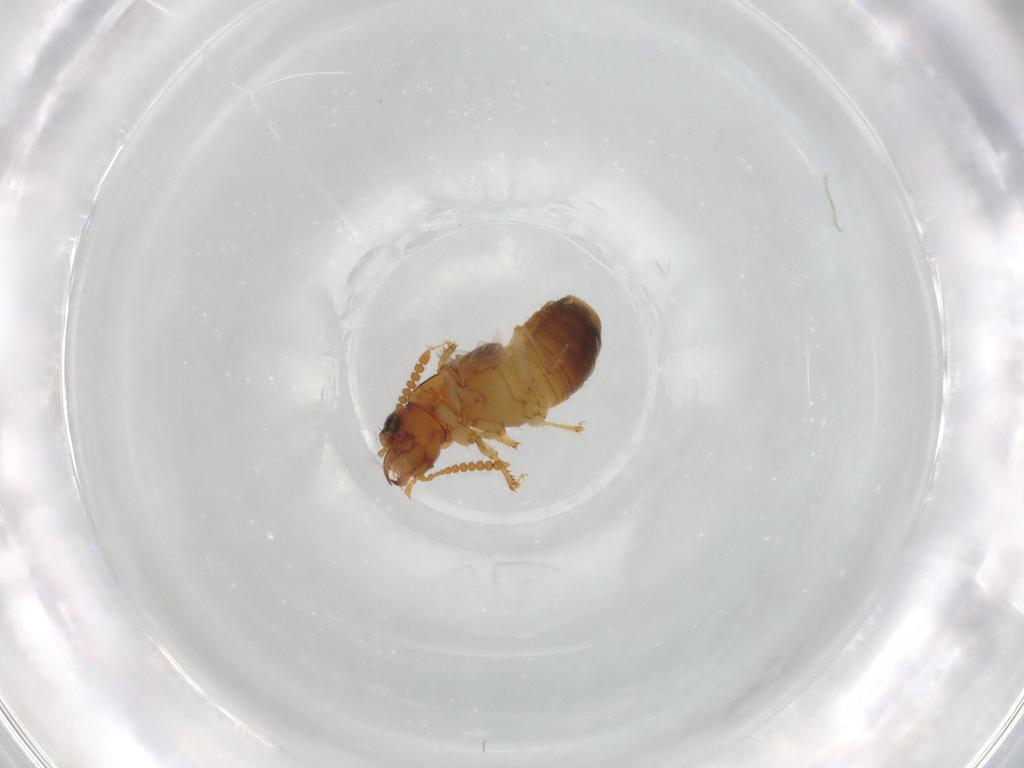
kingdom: Animalia
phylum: Arthropoda
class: Insecta
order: Coleoptera
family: Staphylinidae
